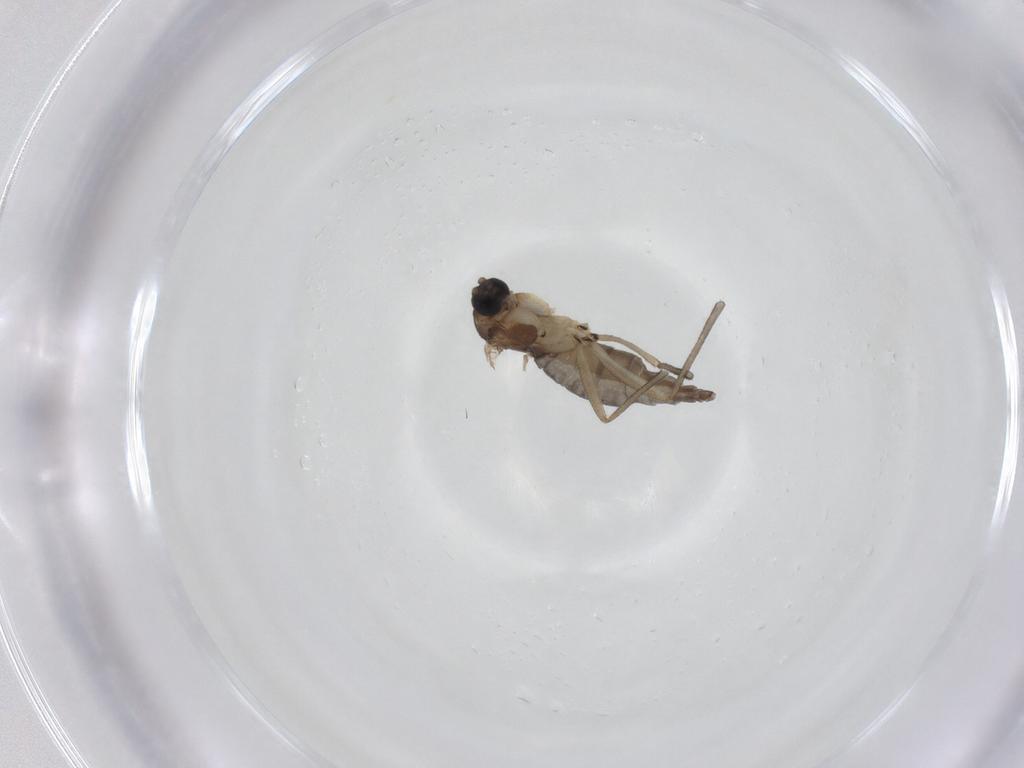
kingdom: Animalia
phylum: Arthropoda
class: Insecta
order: Diptera
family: Sciaridae
